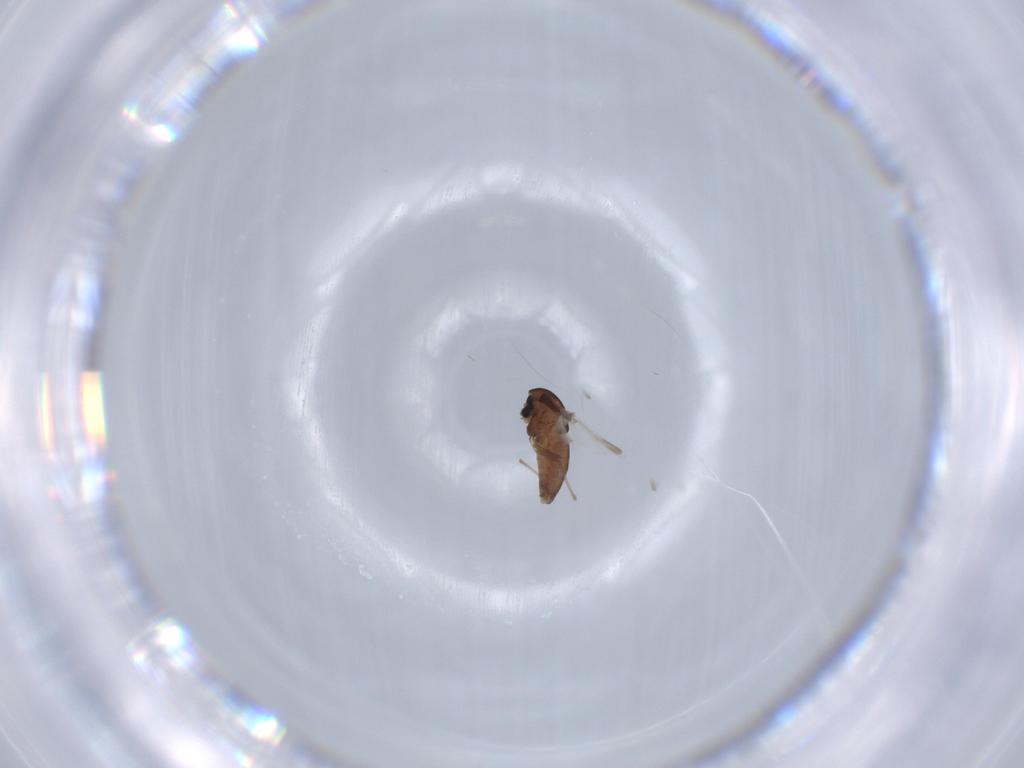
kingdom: Animalia
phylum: Arthropoda
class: Insecta
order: Diptera
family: Chironomidae
